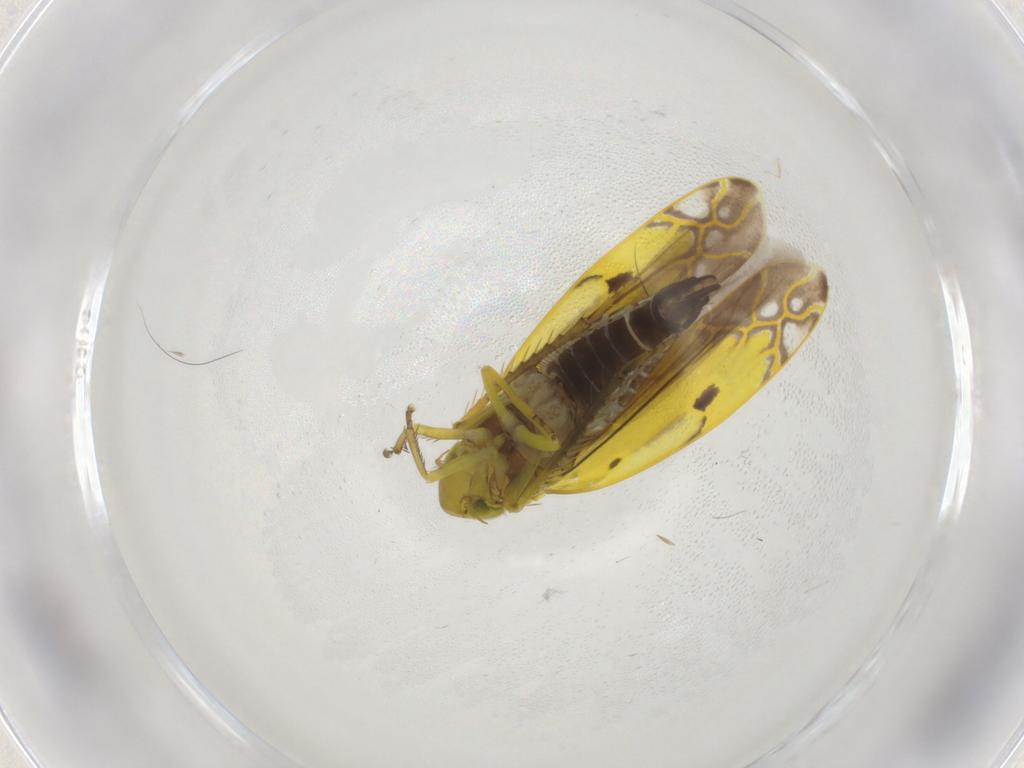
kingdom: Animalia
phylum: Arthropoda
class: Insecta
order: Hemiptera
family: Cicadellidae
